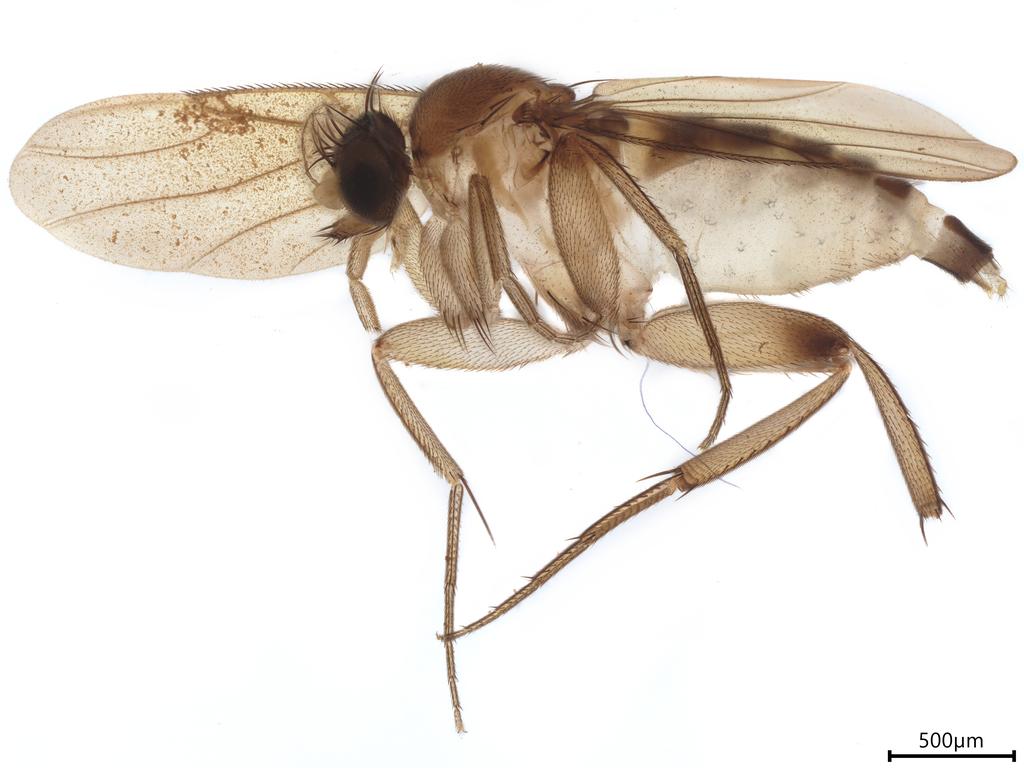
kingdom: Animalia
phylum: Arthropoda
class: Insecta
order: Diptera
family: Phoridae
